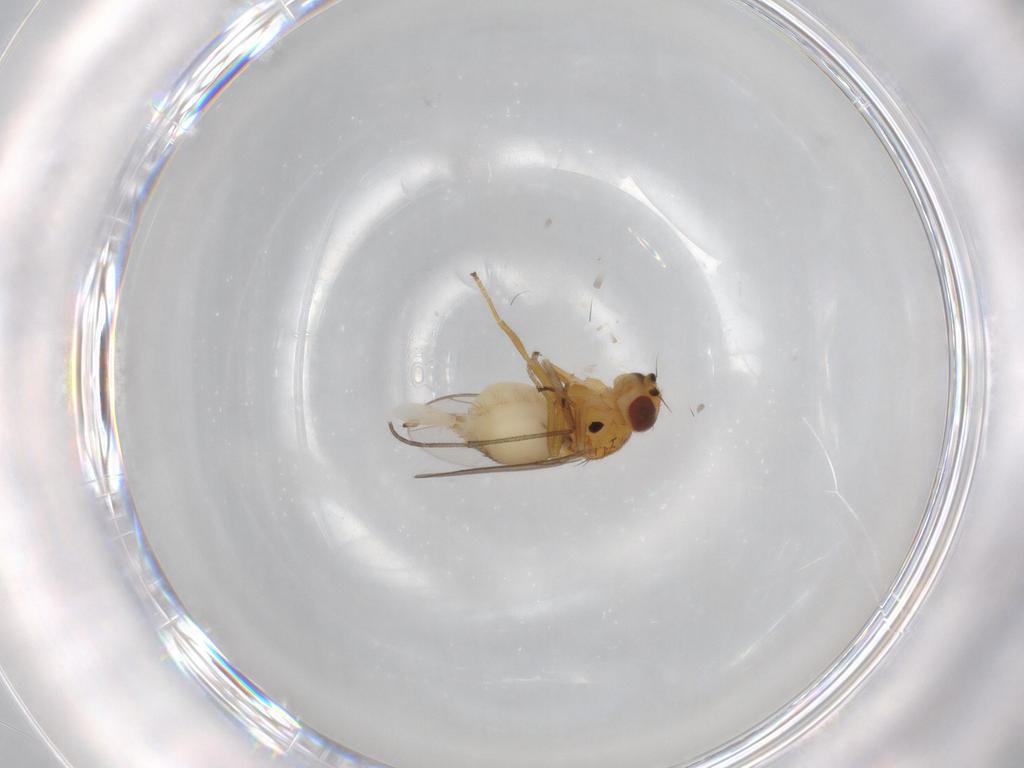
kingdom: Animalia
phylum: Arthropoda
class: Insecta
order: Diptera
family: Chloropidae
